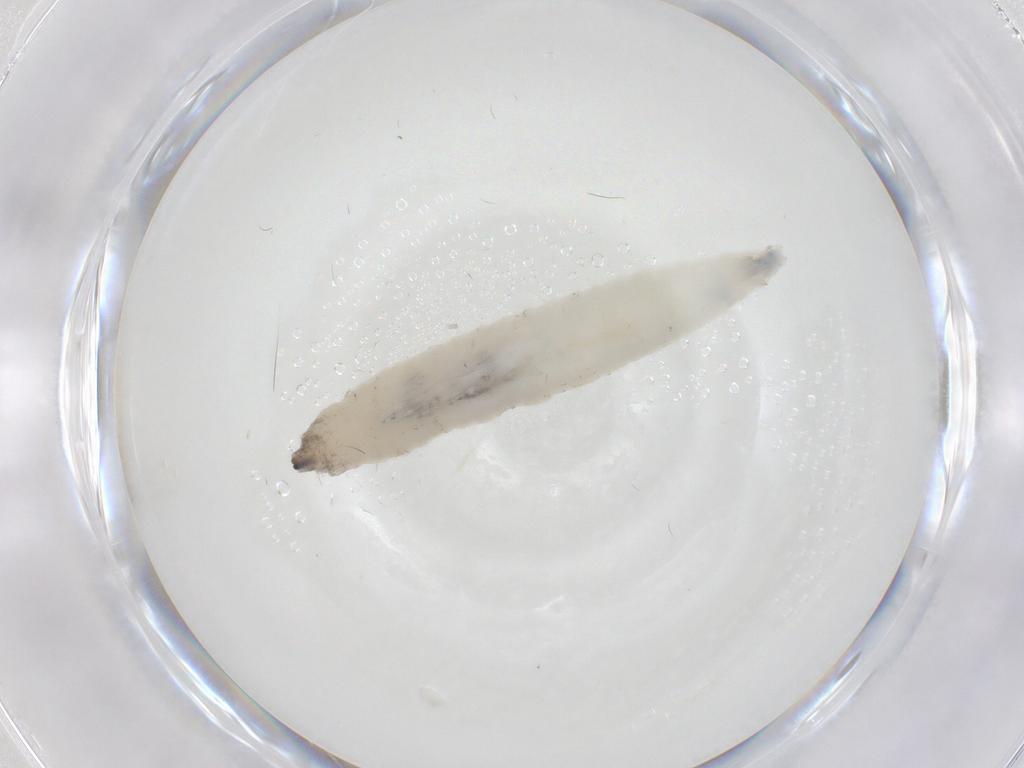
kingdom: Animalia
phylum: Arthropoda
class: Insecta
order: Diptera
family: Drosophilidae
